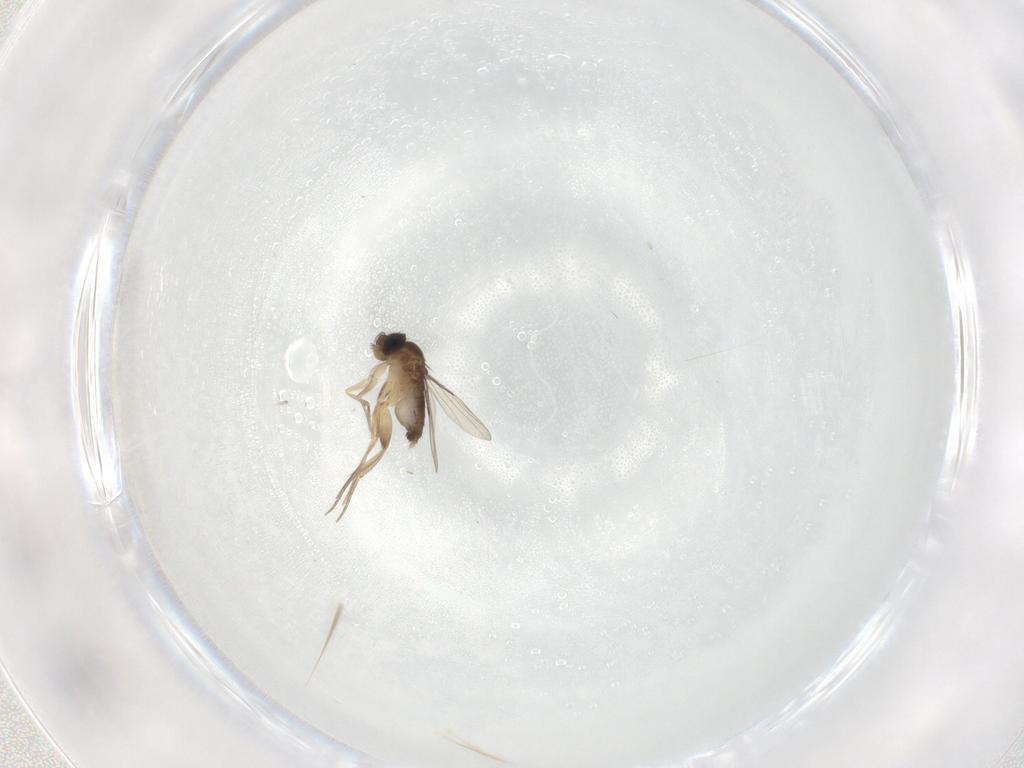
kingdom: Animalia
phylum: Arthropoda
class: Insecta
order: Diptera
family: Phoridae
